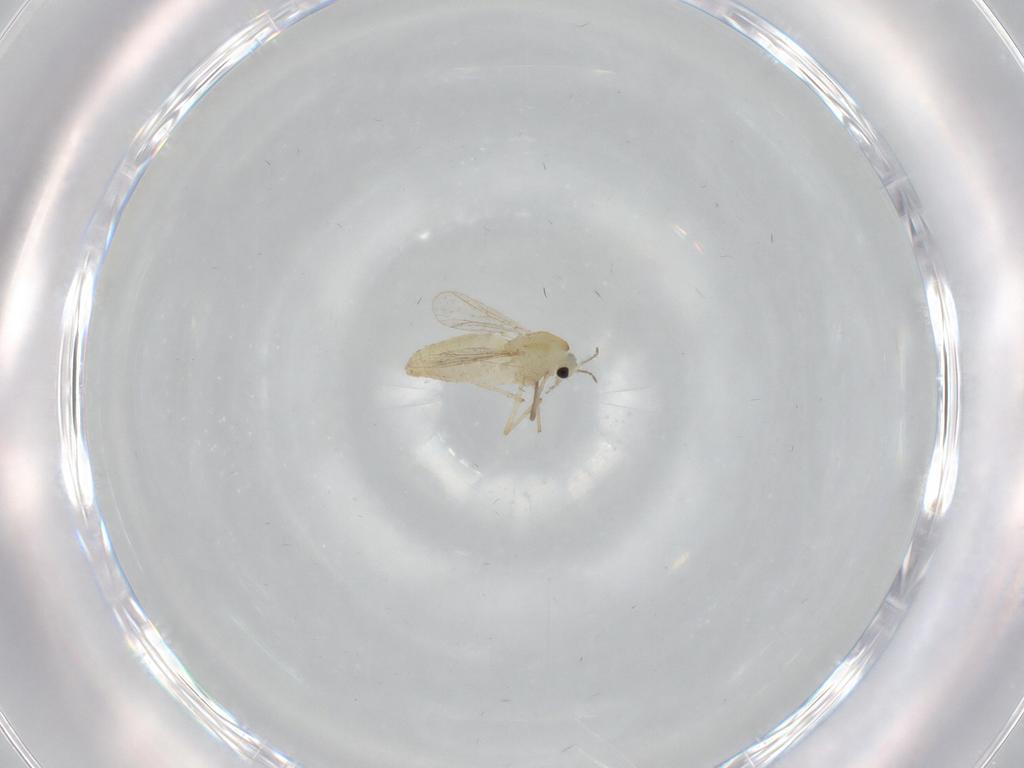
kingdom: Animalia
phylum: Arthropoda
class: Insecta
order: Diptera
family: Chironomidae
